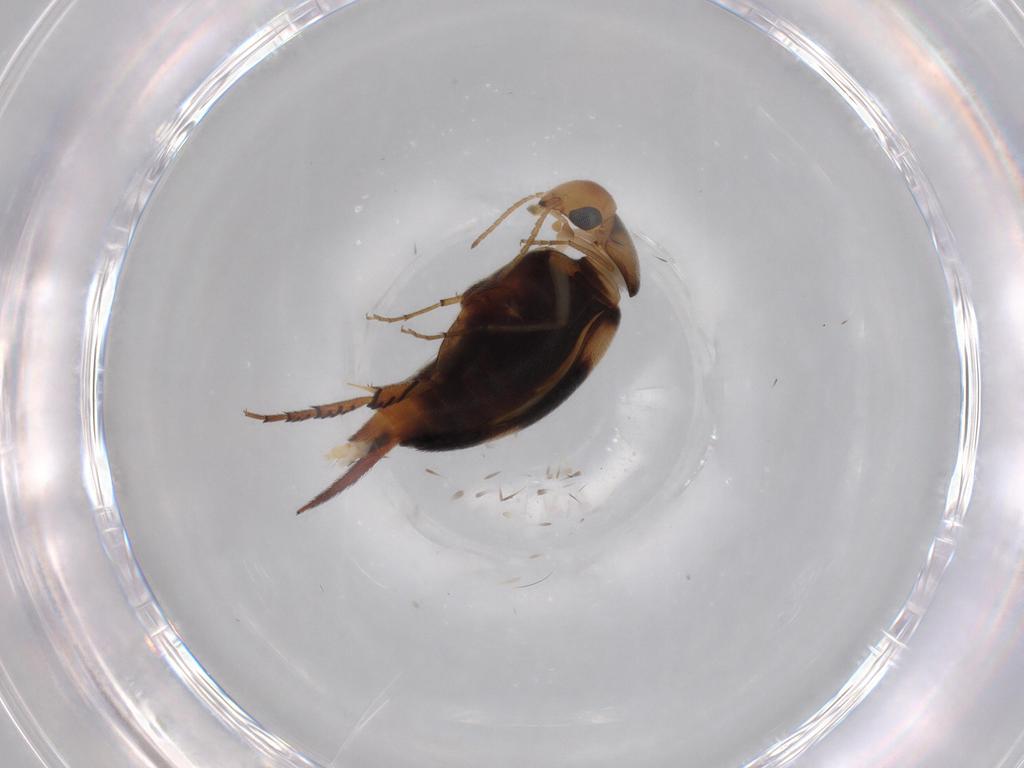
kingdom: Animalia
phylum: Arthropoda
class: Insecta
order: Coleoptera
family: Mordellidae
